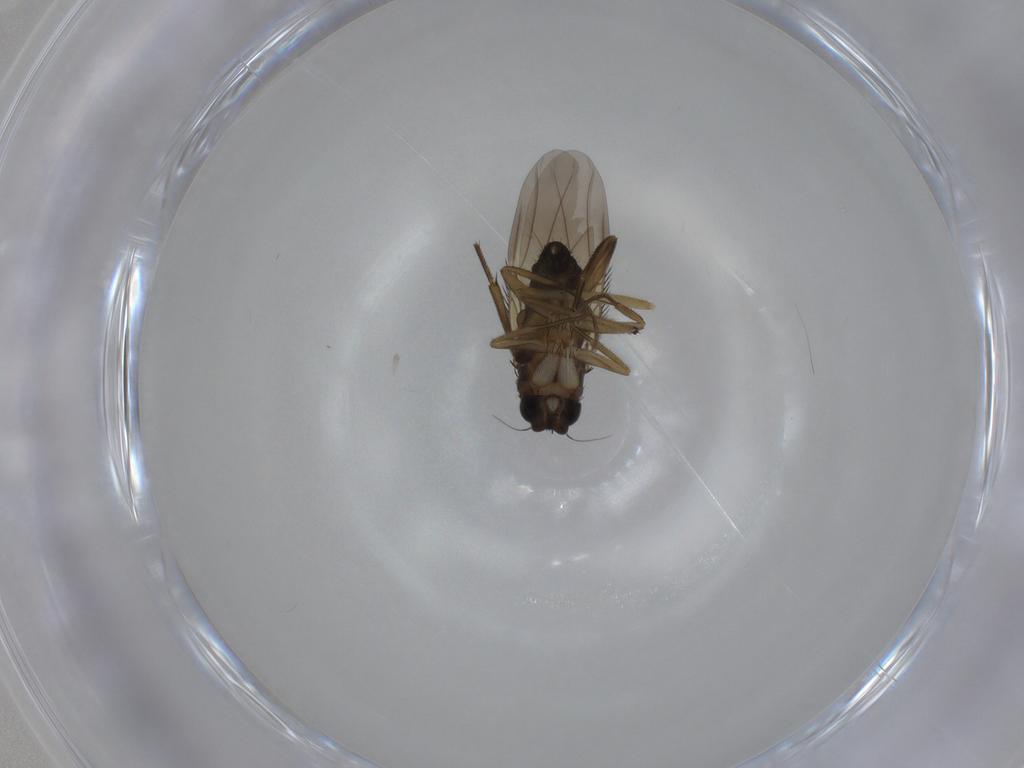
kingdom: Animalia
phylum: Arthropoda
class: Insecta
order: Diptera
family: Phoridae
